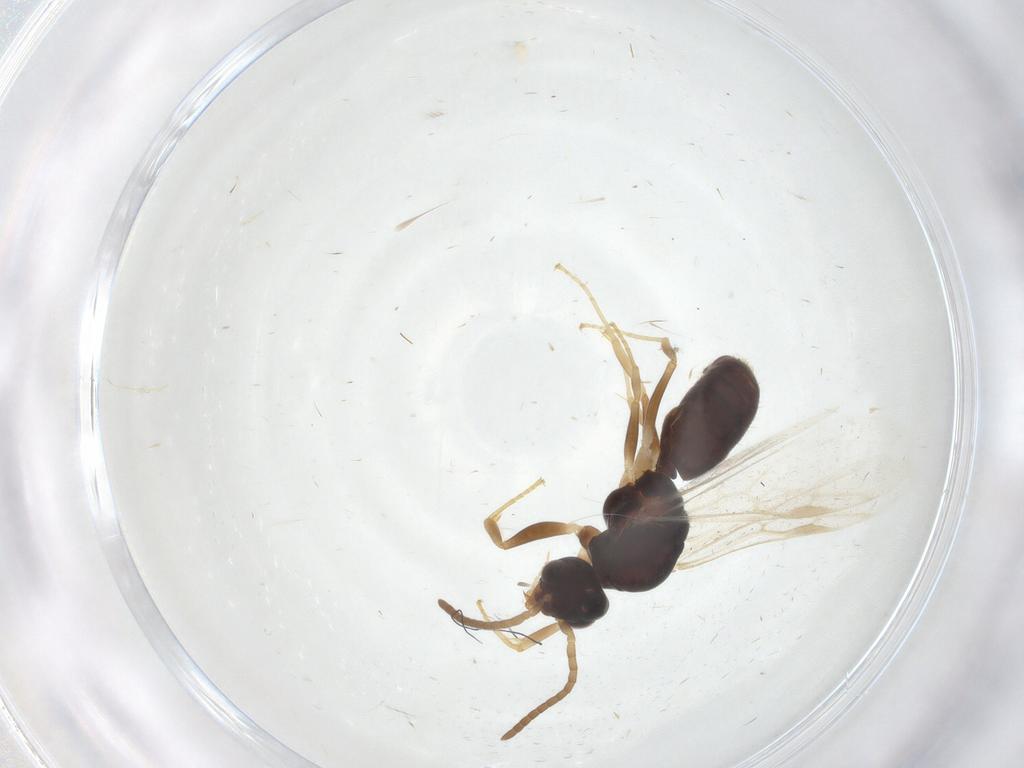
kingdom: Animalia
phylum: Arthropoda
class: Insecta
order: Hymenoptera
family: Formicidae
